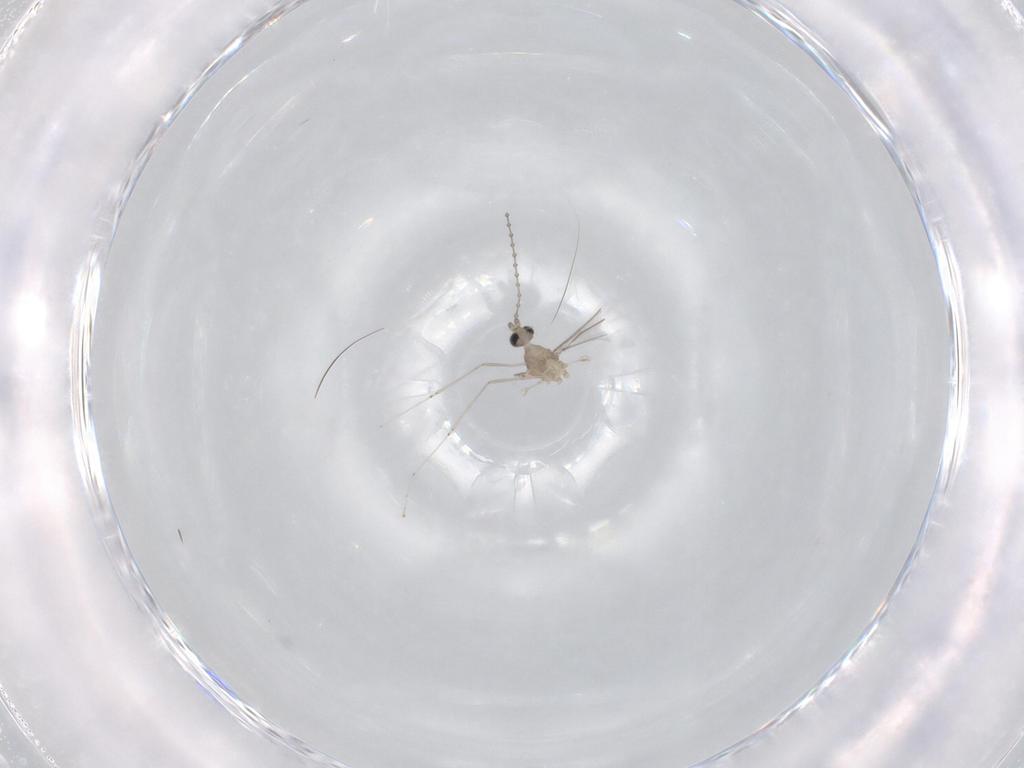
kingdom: Animalia
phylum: Arthropoda
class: Insecta
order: Diptera
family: Cecidomyiidae
